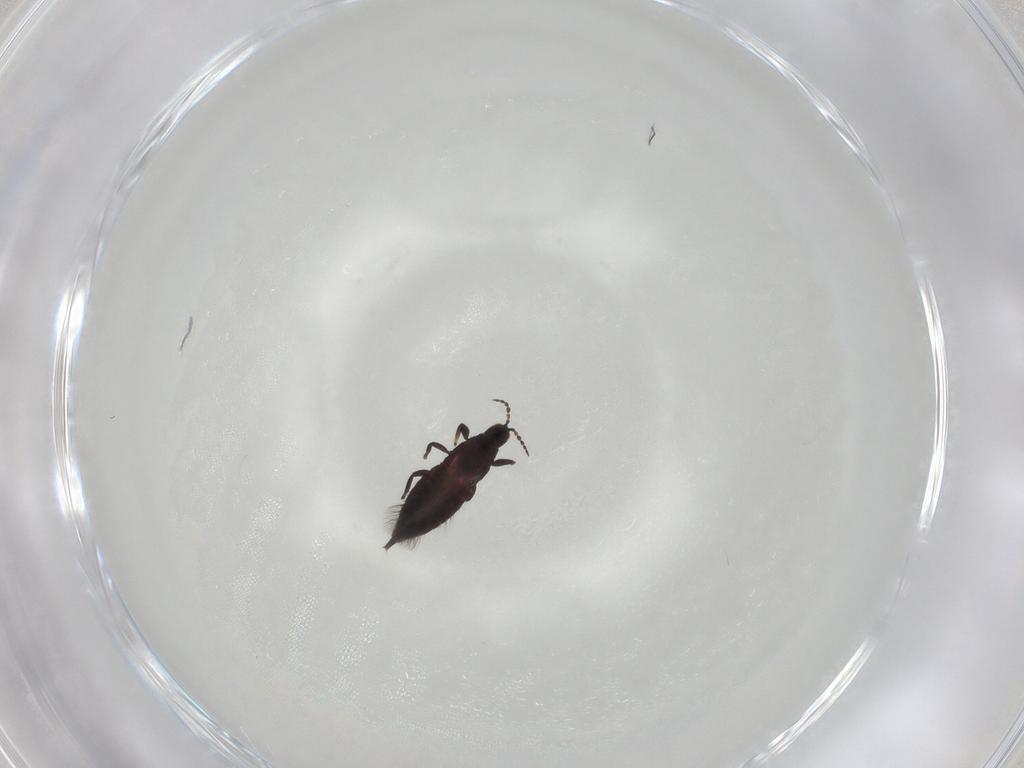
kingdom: Animalia
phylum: Arthropoda
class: Insecta
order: Thysanoptera
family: Phlaeothripidae
